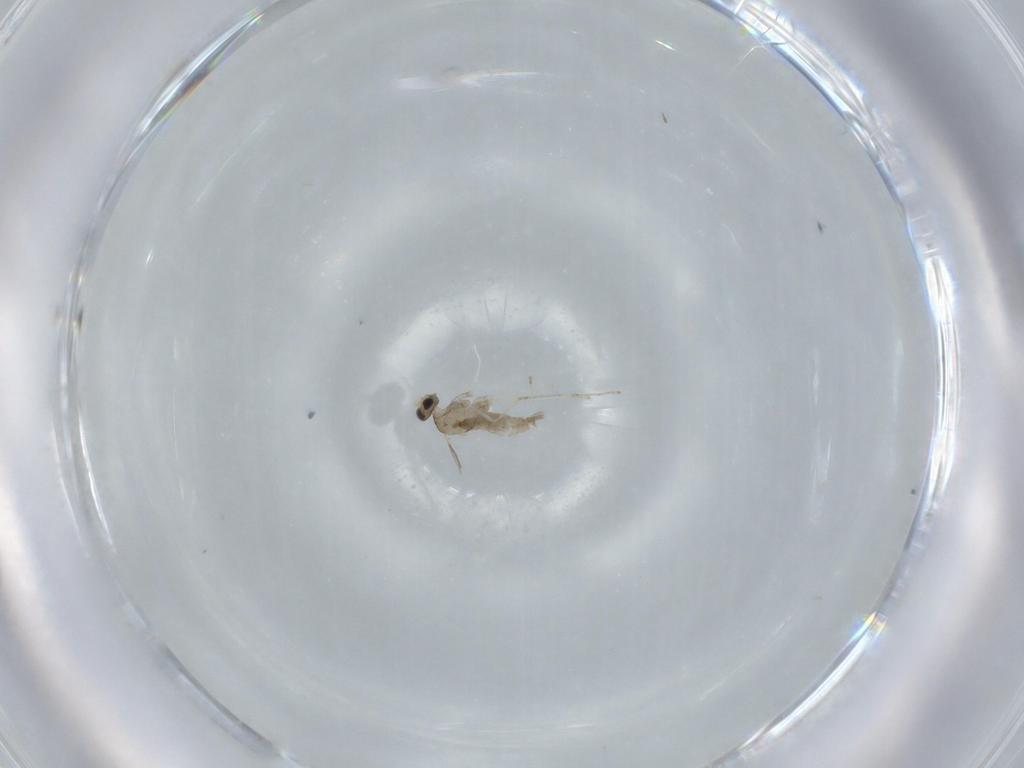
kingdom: Animalia
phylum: Arthropoda
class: Insecta
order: Diptera
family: Cecidomyiidae
